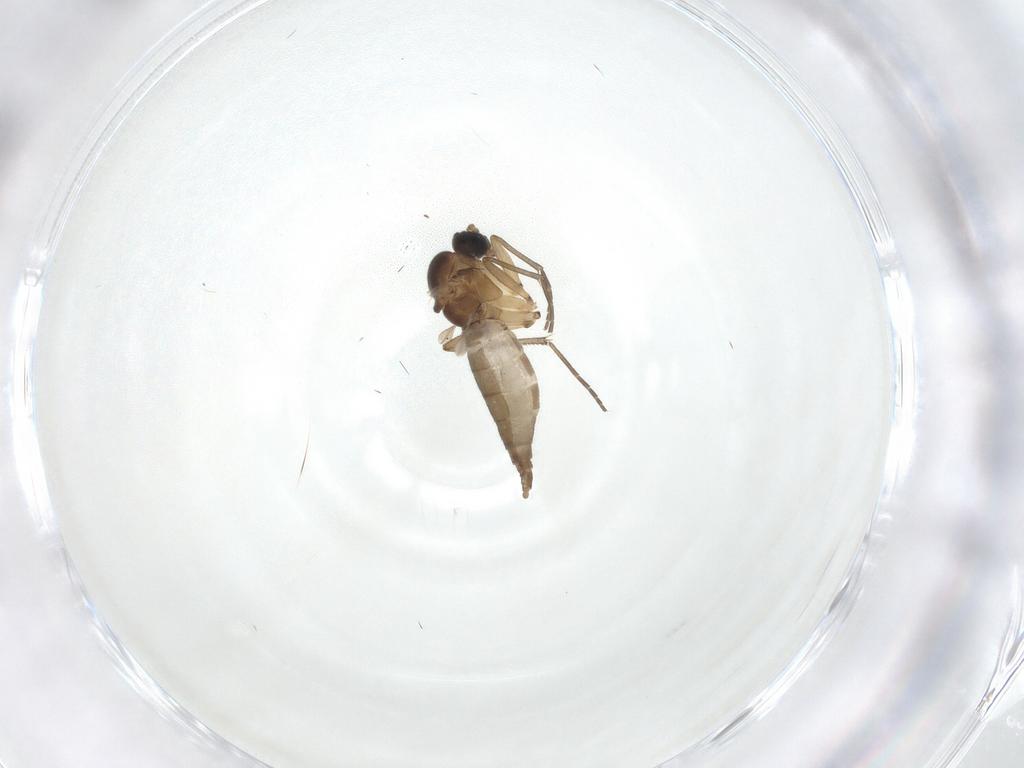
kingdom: Animalia
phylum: Arthropoda
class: Insecta
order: Diptera
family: Sciaridae
